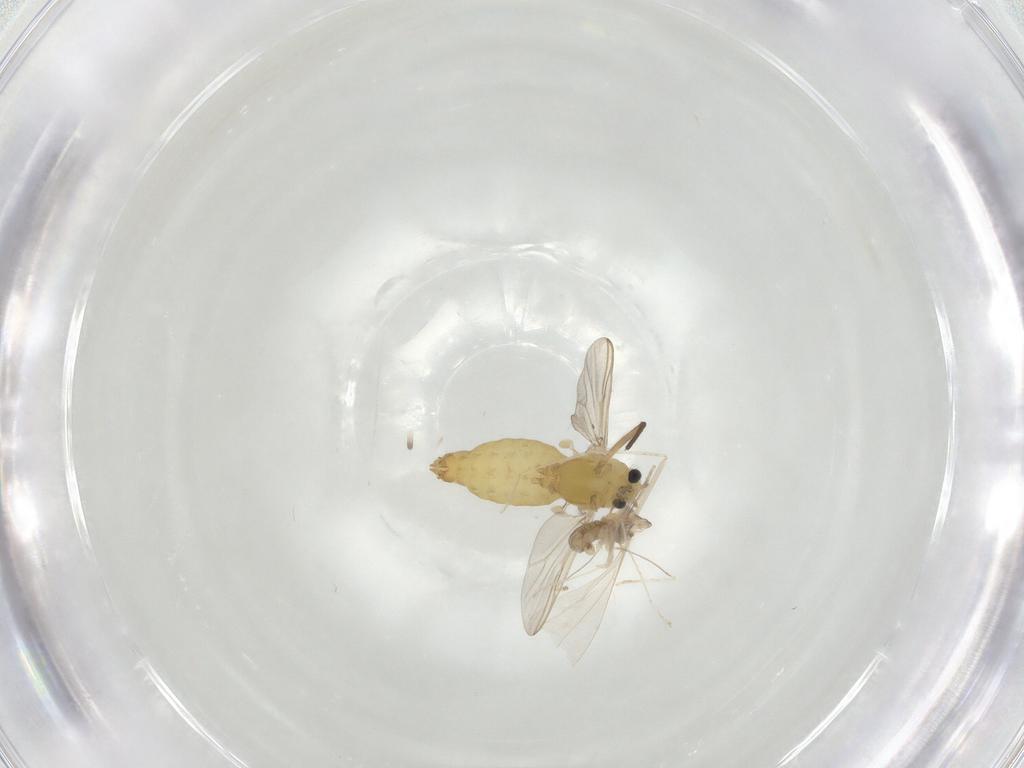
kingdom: Animalia
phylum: Arthropoda
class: Insecta
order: Diptera
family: Cecidomyiidae
